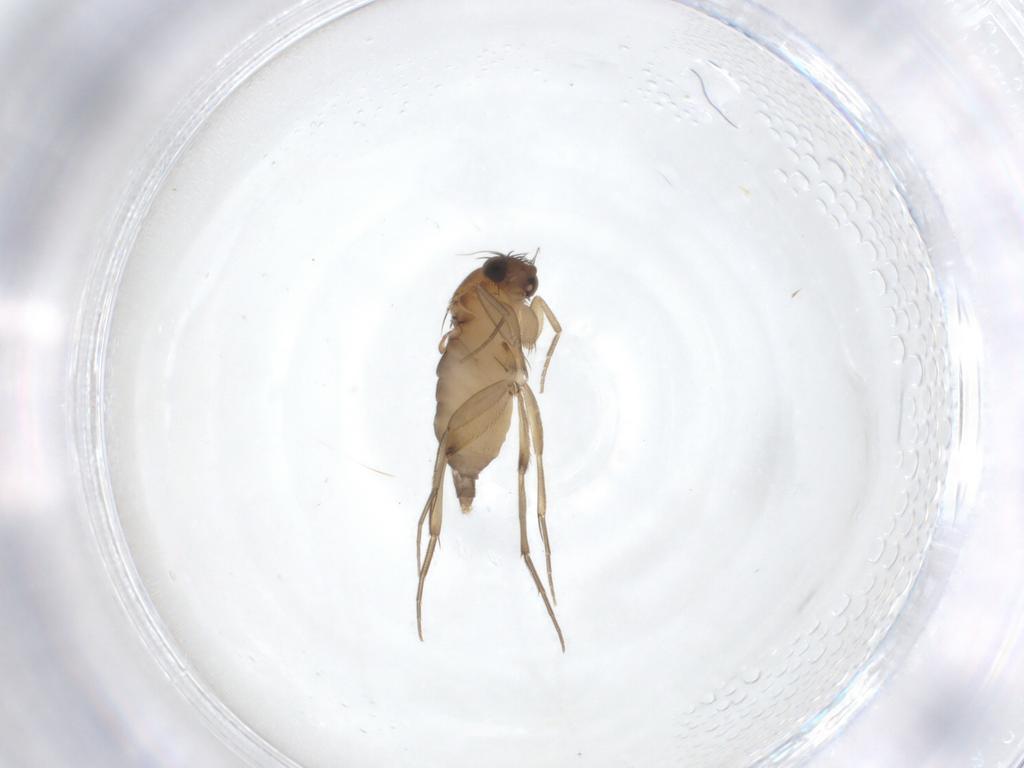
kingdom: Animalia
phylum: Arthropoda
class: Insecta
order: Diptera
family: Phoridae
